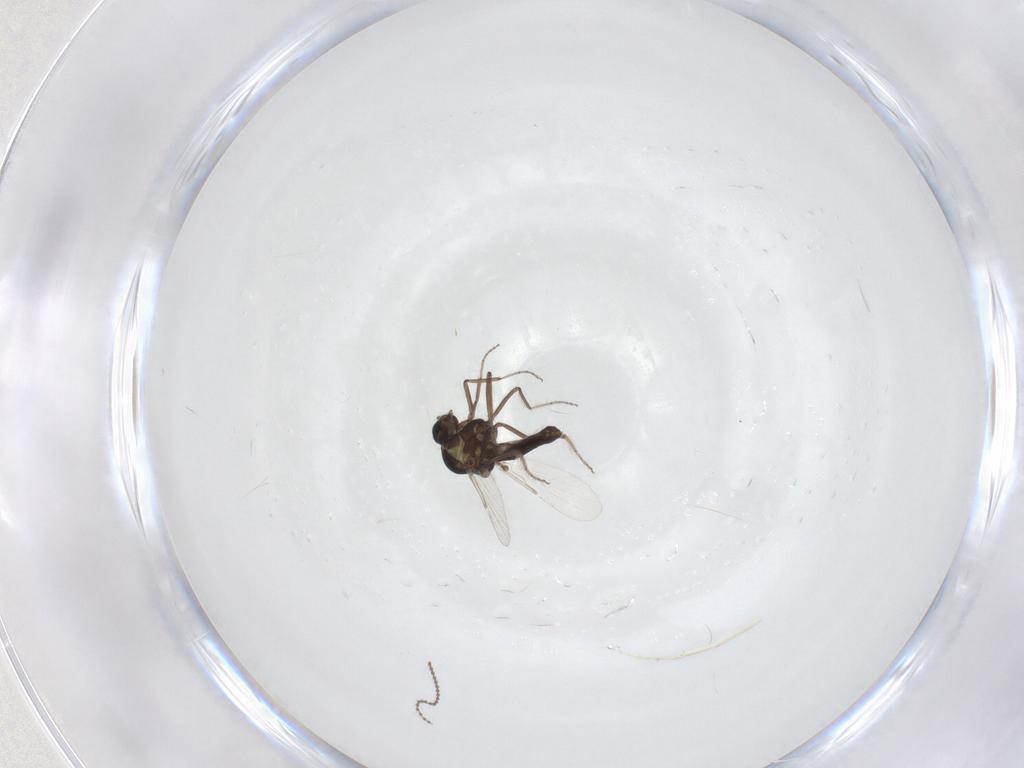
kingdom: Animalia
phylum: Arthropoda
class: Insecta
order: Diptera
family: Ceratopogonidae
